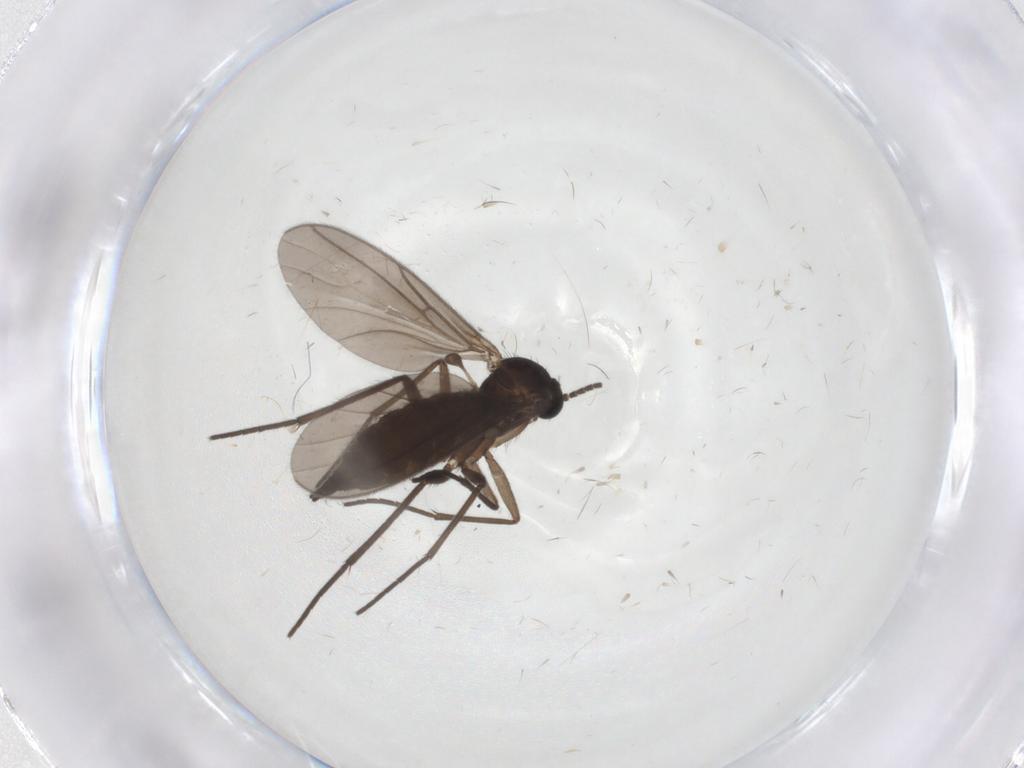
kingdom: Animalia
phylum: Arthropoda
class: Insecta
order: Diptera
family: Sciaridae
